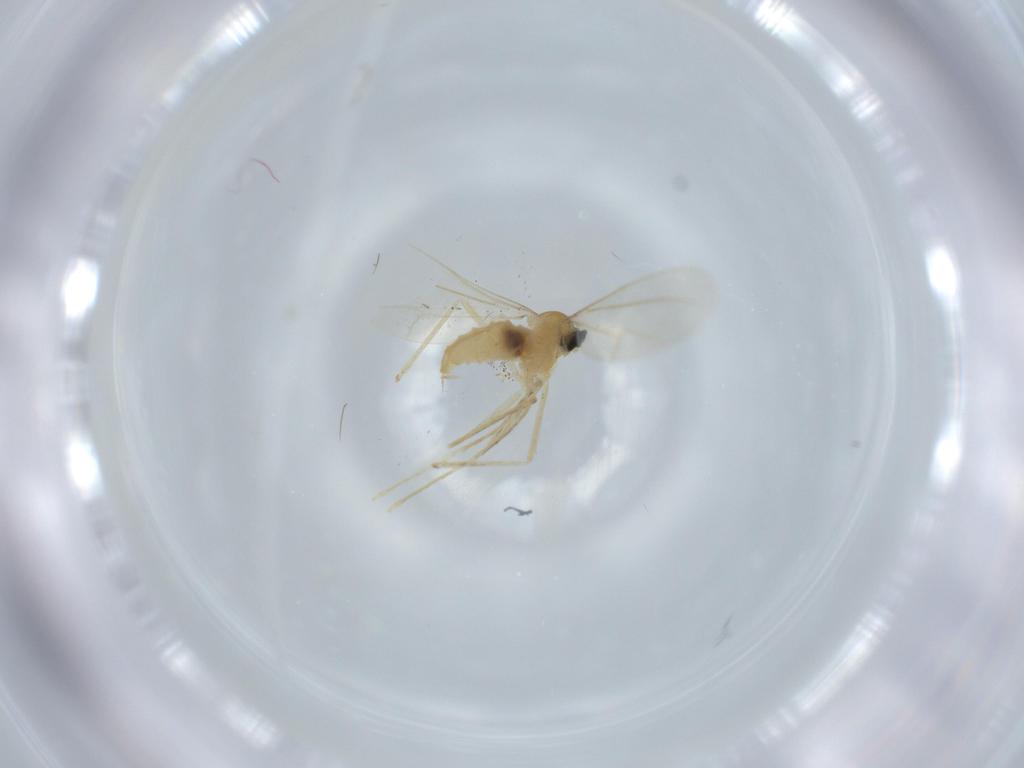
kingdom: Animalia
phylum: Arthropoda
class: Insecta
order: Diptera
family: Cecidomyiidae
